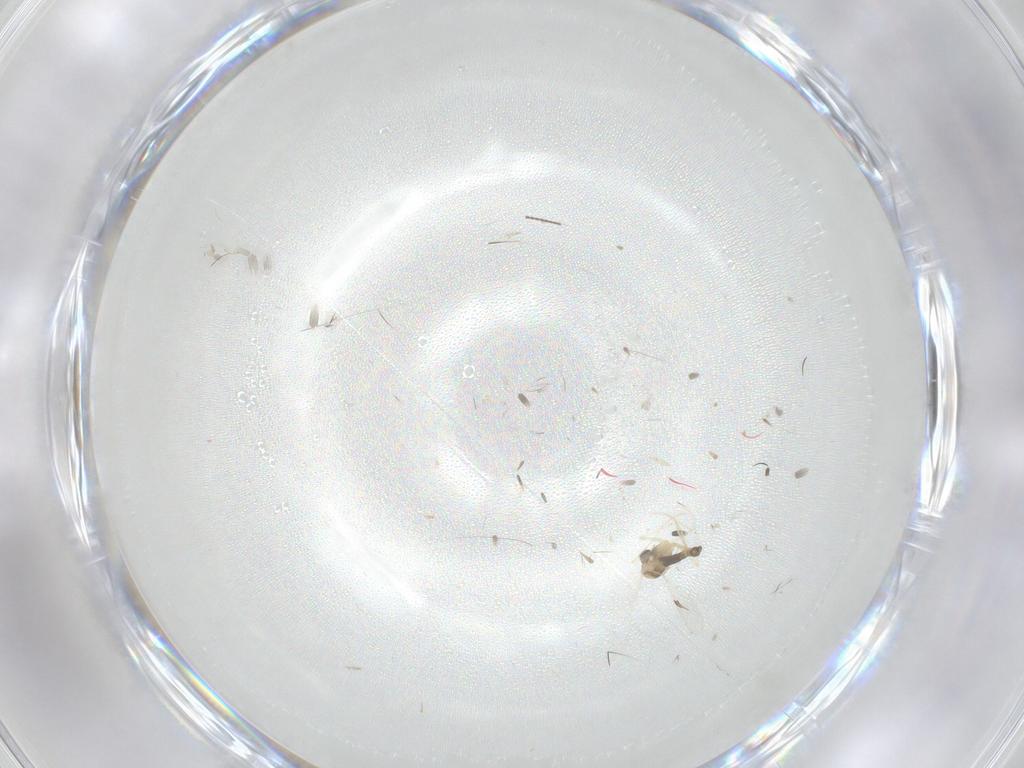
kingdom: Animalia
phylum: Arthropoda
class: Insecta
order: Diptera
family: Chironomidae
